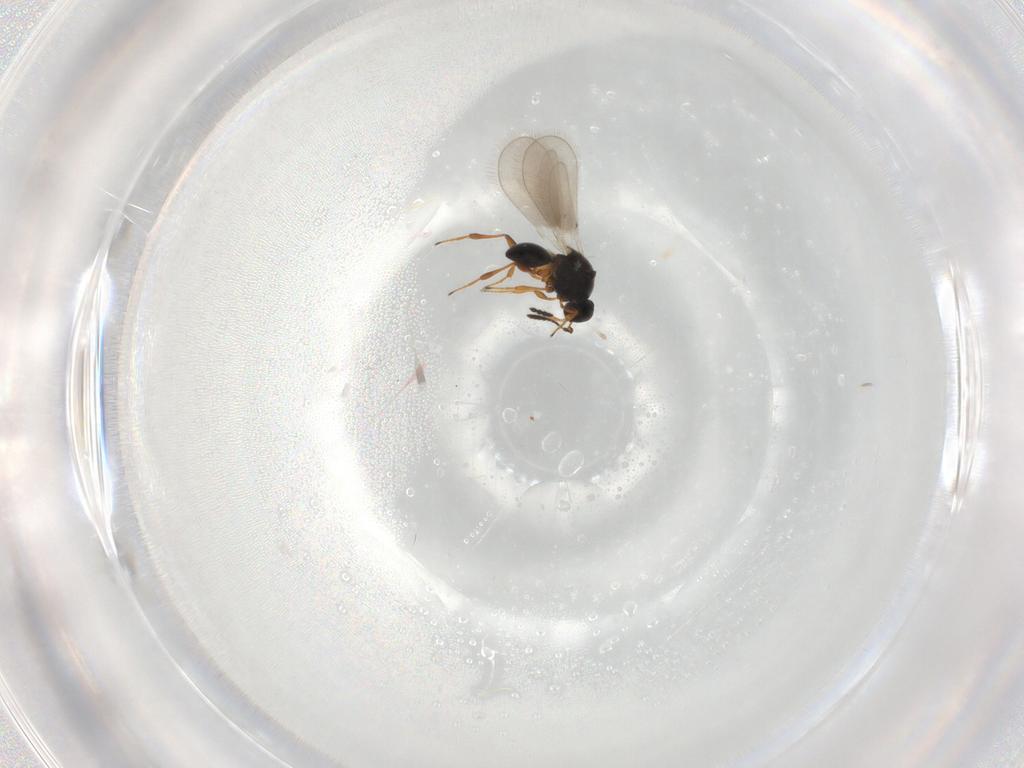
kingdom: Animalia
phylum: Arthropoda
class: Insecta
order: Hymenoptera
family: Platygastridae
